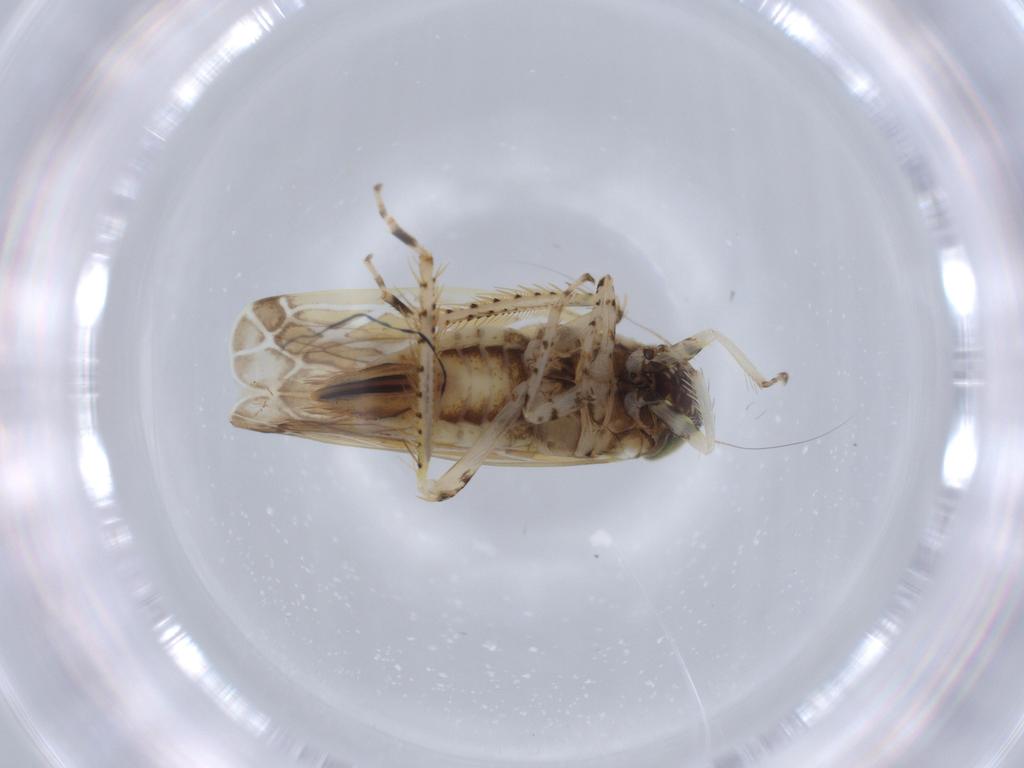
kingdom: Animalia
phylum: Arthropoda
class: Insecta
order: Hemiptera
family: Cicadellidae
